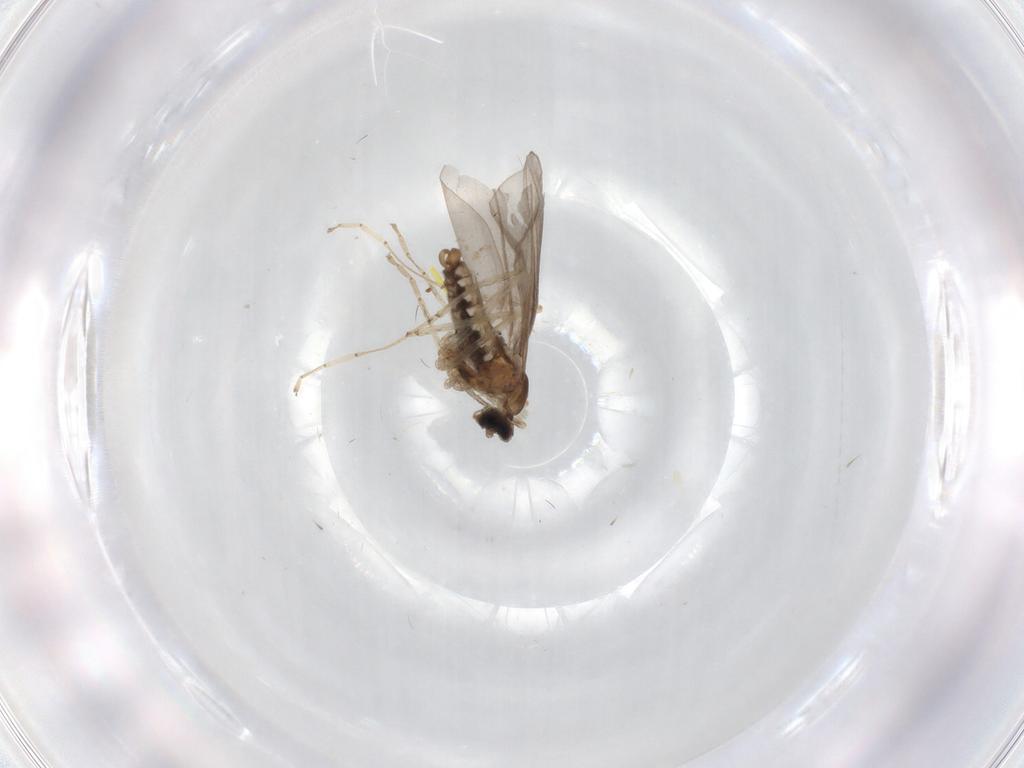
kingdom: Animalia
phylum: Arthropoda
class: Insecta
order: Diptera
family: Cecidomyiidae
